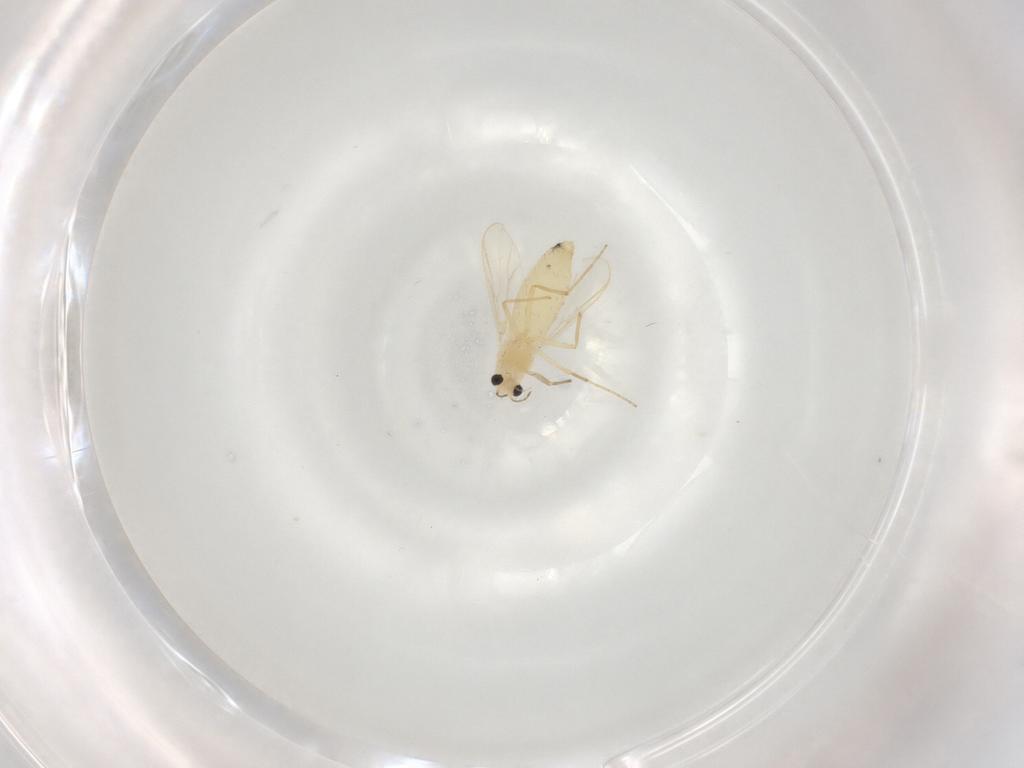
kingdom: Animalia
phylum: Arthropoda
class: Insecta
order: Diptera
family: Chironomidae
